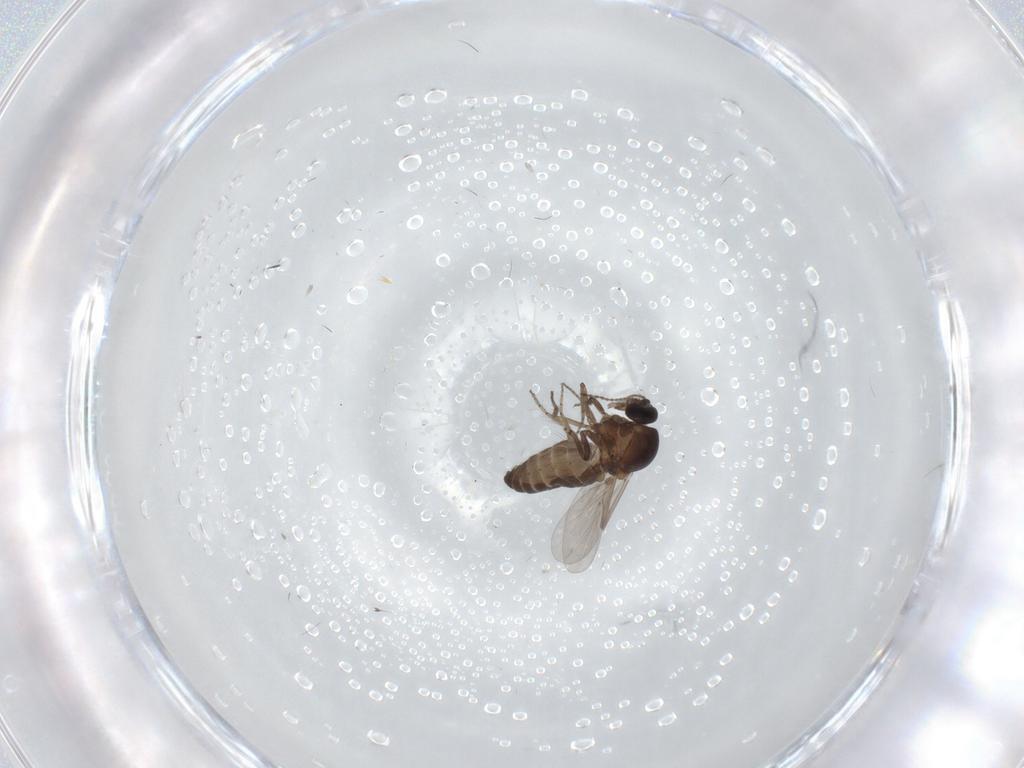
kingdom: Animalia
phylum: Arthropoda
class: Insecta
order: Diptera
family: Ceratopogonidae
